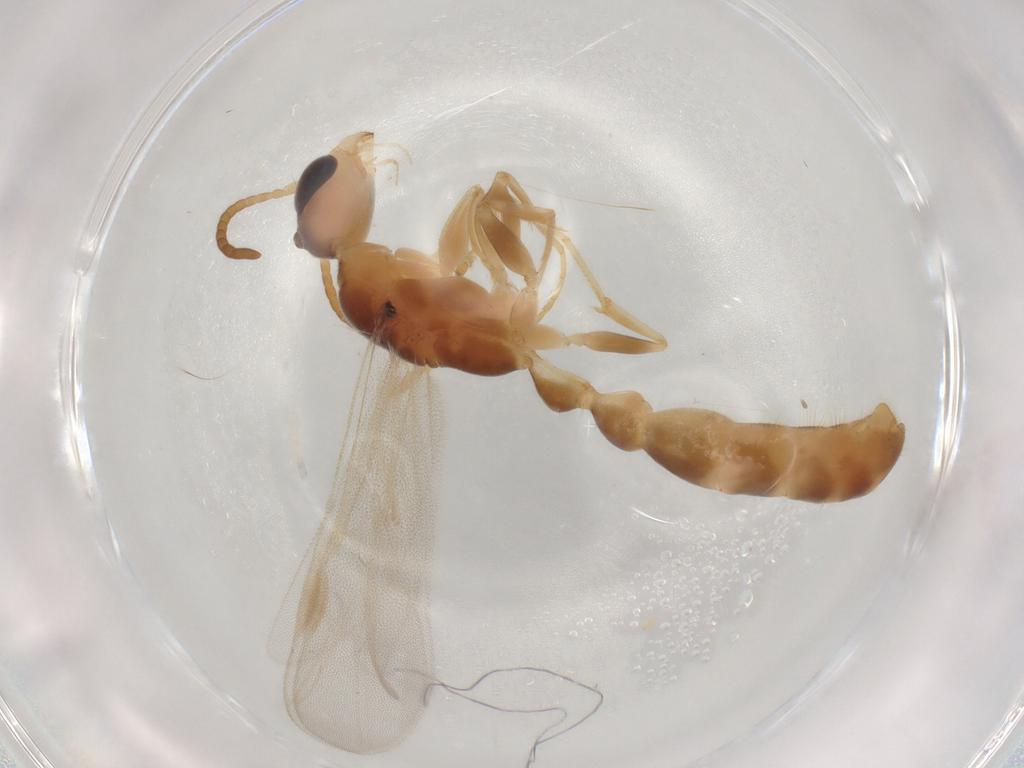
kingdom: Animalia
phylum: Arthropoda
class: Insecta
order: Hymenoptera
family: Formicidae
